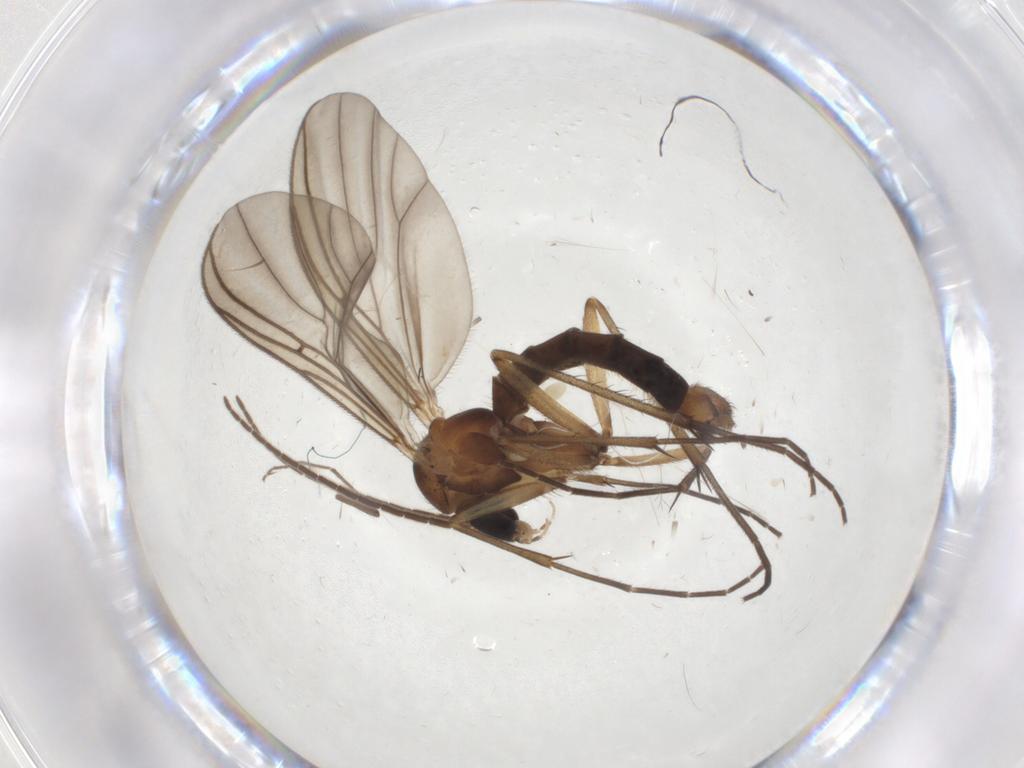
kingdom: Animalia
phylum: Arthropoda
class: Insecta
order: Diptera
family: Mycetophilidae
